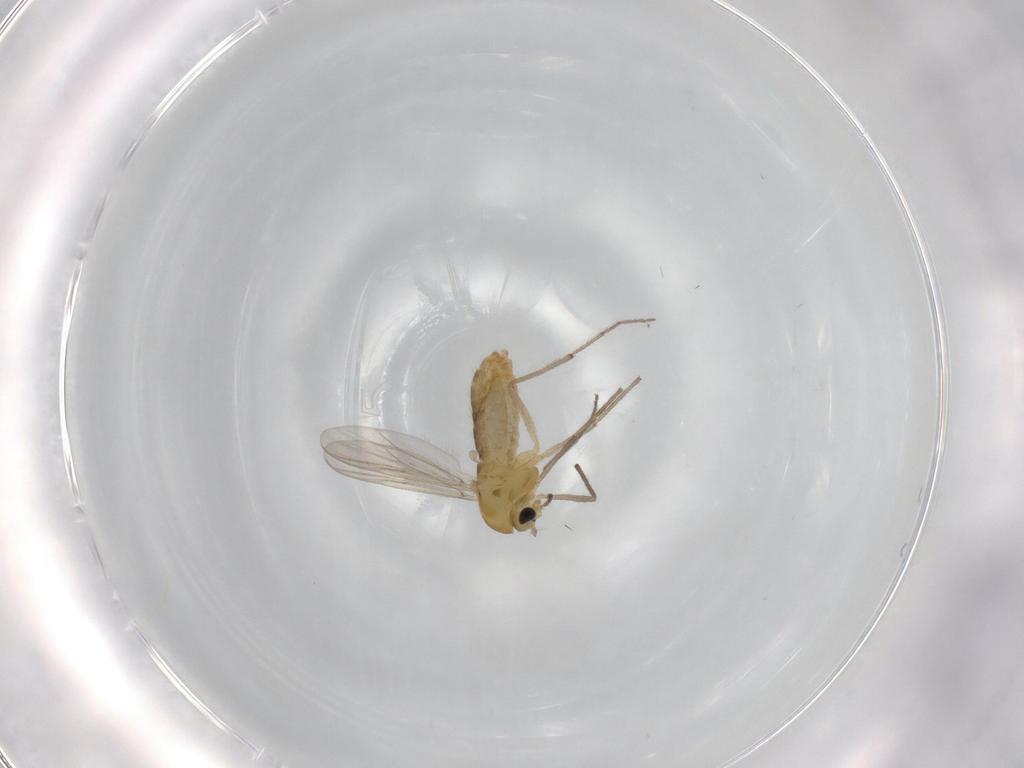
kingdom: Animalia
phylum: Arthropoda
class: Insecta
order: Diptera
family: Chironomidae
